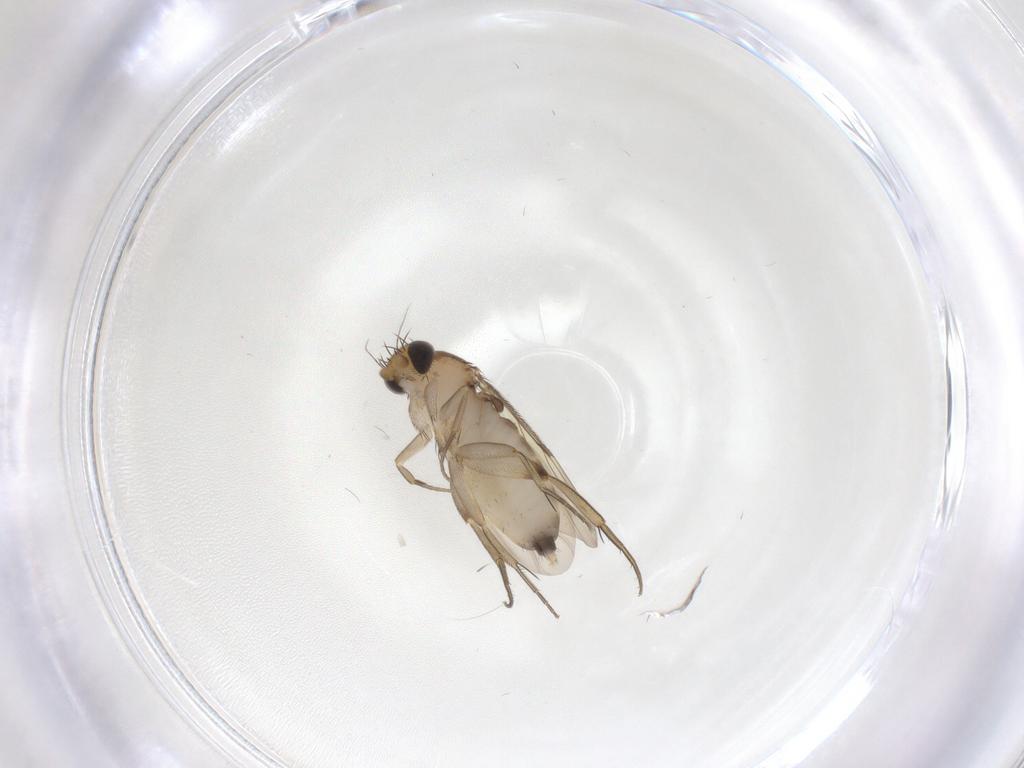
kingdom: Animalia
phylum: Arthropoda
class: Insecta
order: Diptera
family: Phoridae
